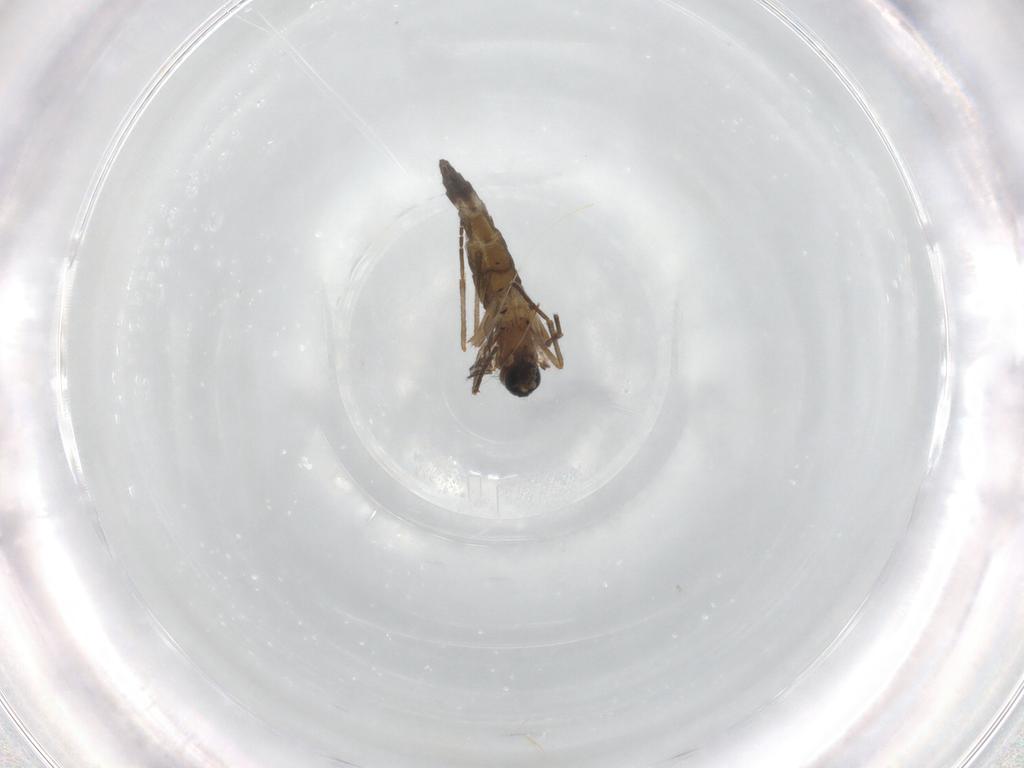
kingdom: Animalia
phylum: Arthropoda
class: Insecta
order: Diptera
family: Sciaridae
